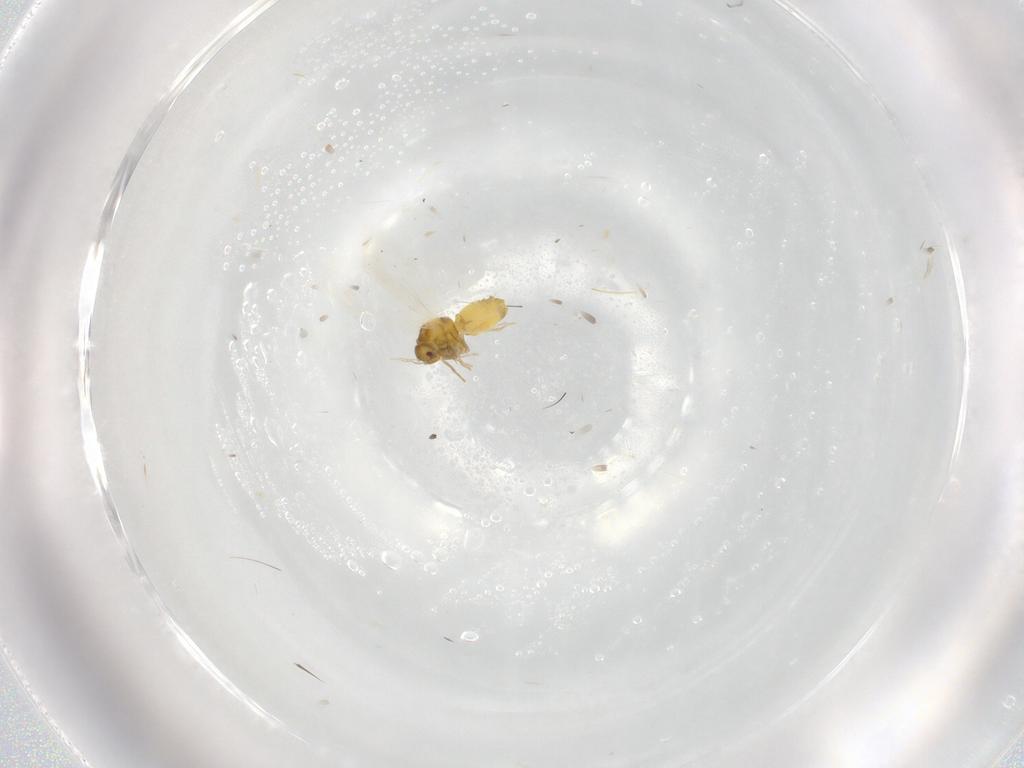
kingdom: Animalia
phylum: Arthropoda
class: Insecta
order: Hemiptera
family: Aleyrodidae
